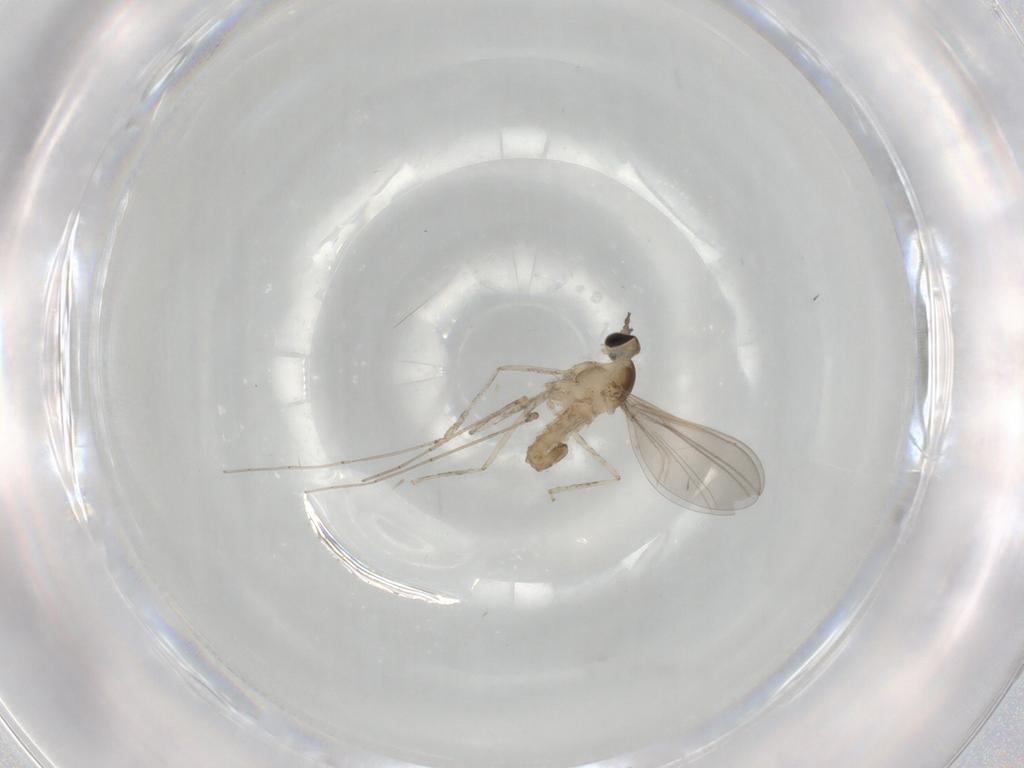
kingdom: Animalia
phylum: Arthropoda
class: Insecta
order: Diptera
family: Cecidomyiidae
